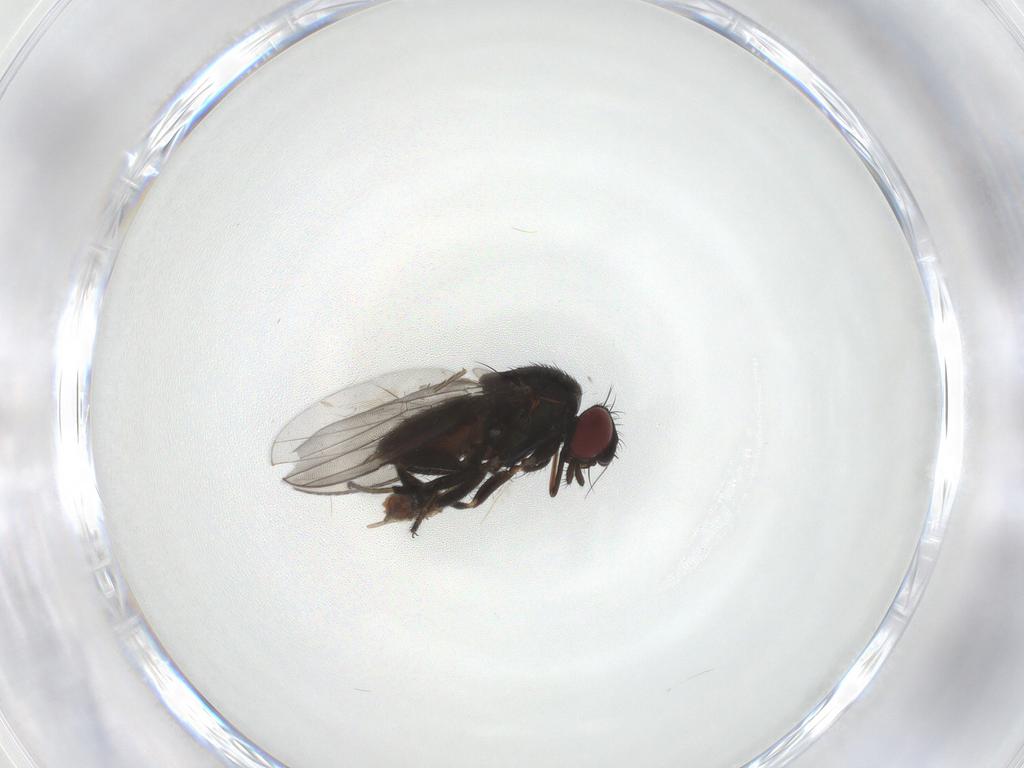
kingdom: Animalia
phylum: Arthropoda
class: Insecta
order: Diptera
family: Milichiidae
